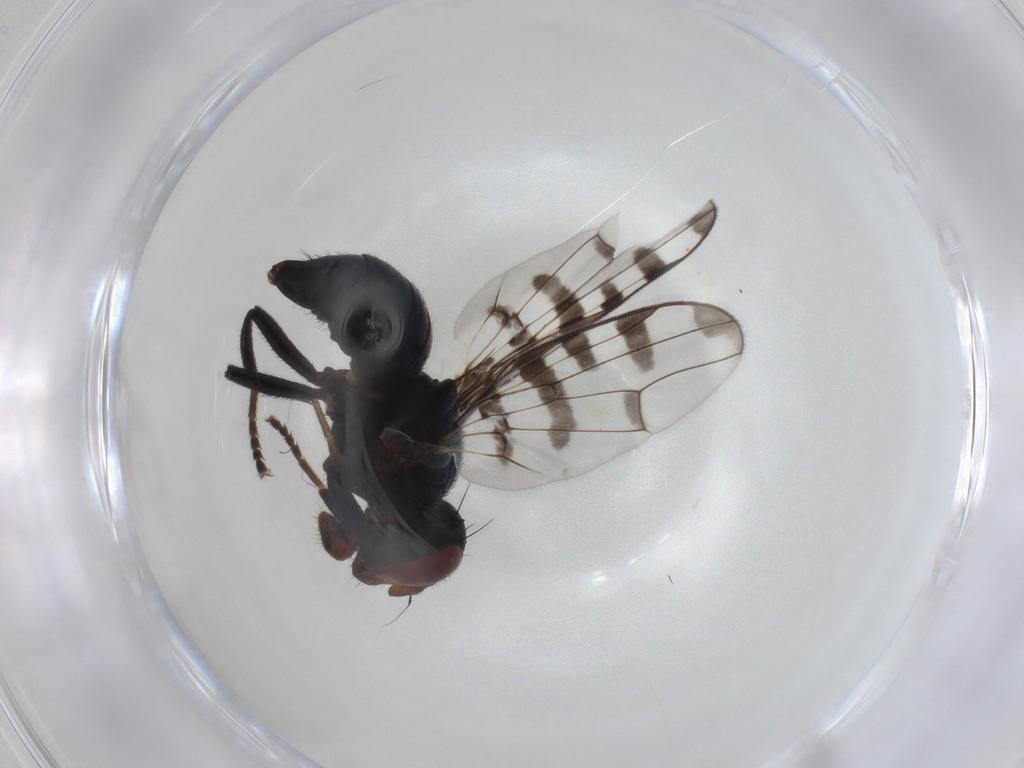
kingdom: Animalia
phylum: Arthropoda
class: Insecta
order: Diptera
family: Platystomatidae
